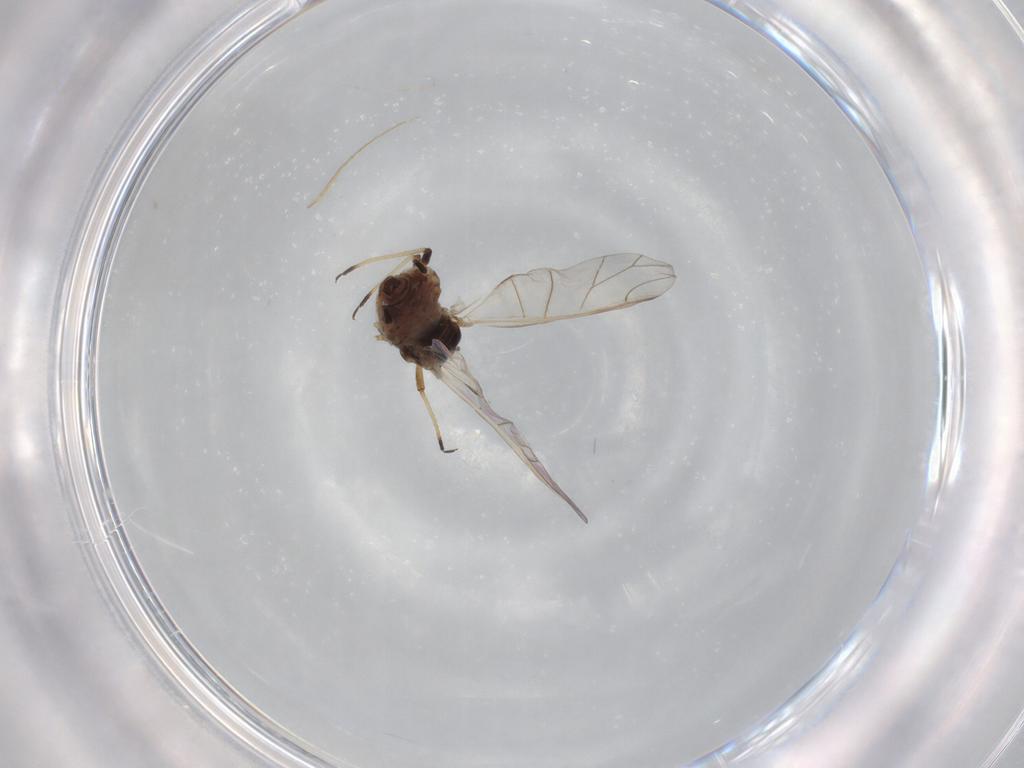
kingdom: Animalia
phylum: Arthropoda
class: Insecta
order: Hemiptera
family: Aphididae
